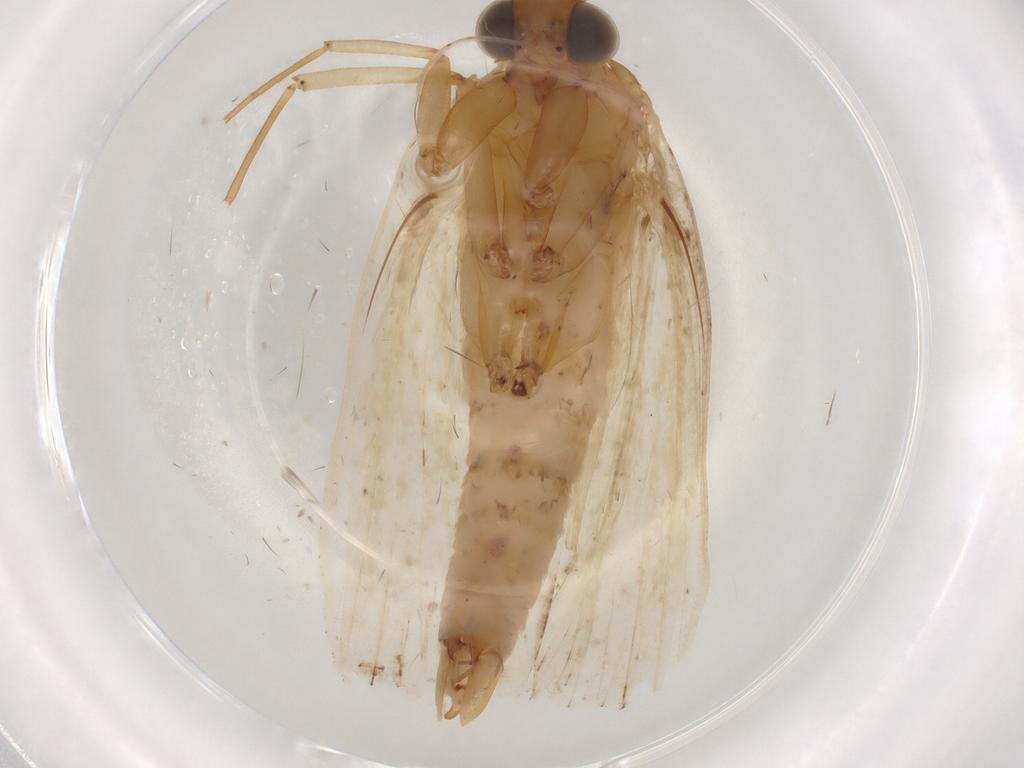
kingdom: Animalia
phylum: Arthropoda
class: Insecta
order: Lepidoptera
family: Oecophoridae
